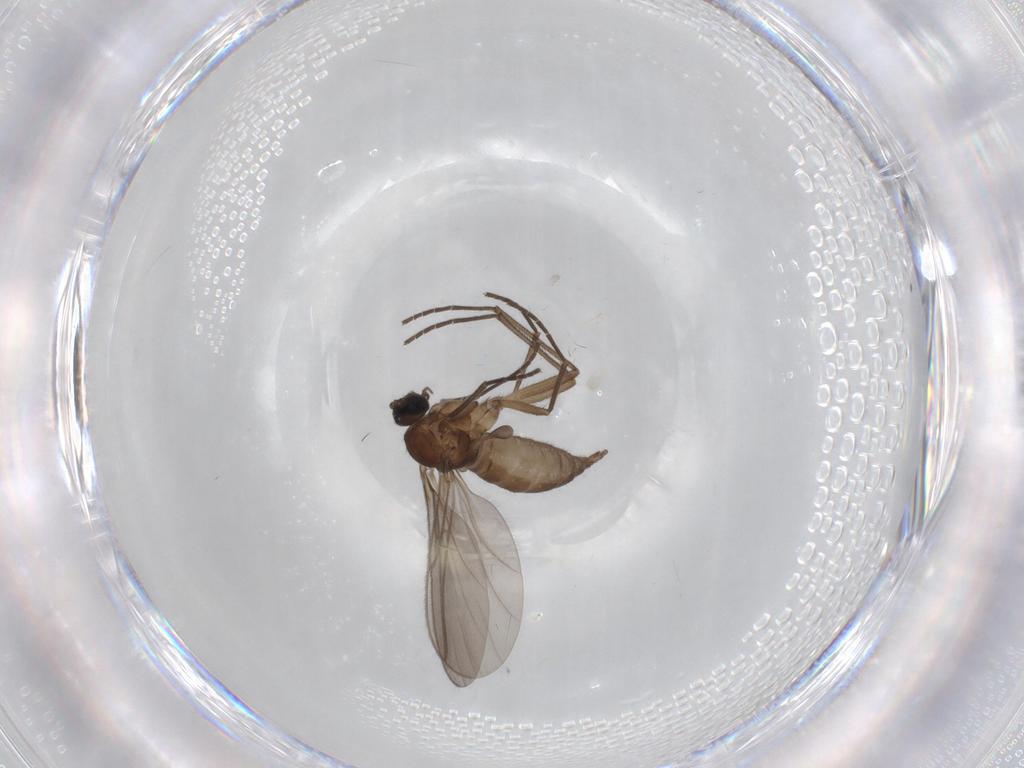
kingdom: Animalia
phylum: Arthropoda
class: Insecta
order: Diptera
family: Sciaridae
